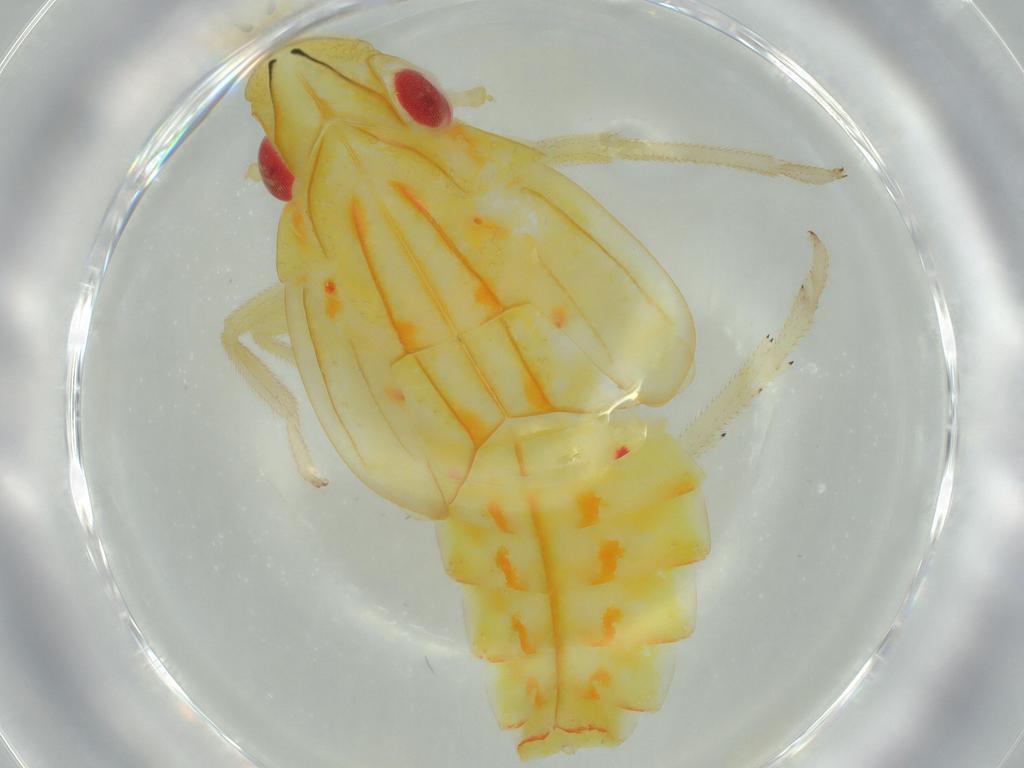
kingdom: Animalia
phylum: Arthropoda
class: Insecta
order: Hemiptera
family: Tropiduchidae
